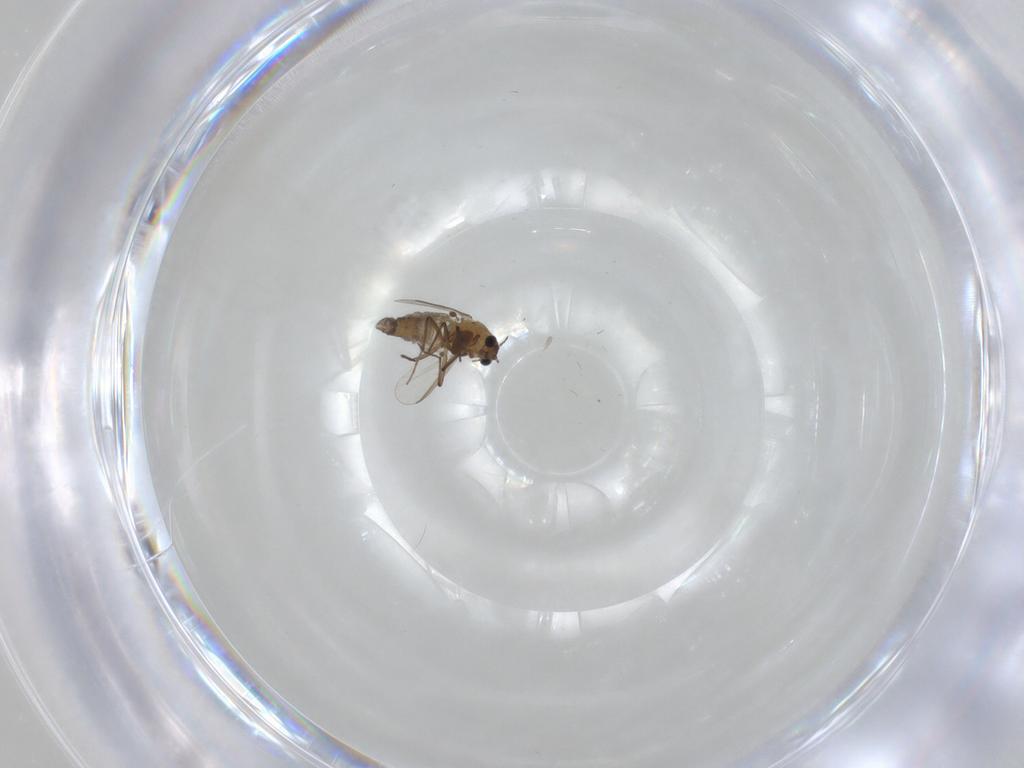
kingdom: Animalia
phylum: Arthropoda
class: Insecta
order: Diptera
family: Chironomidae
